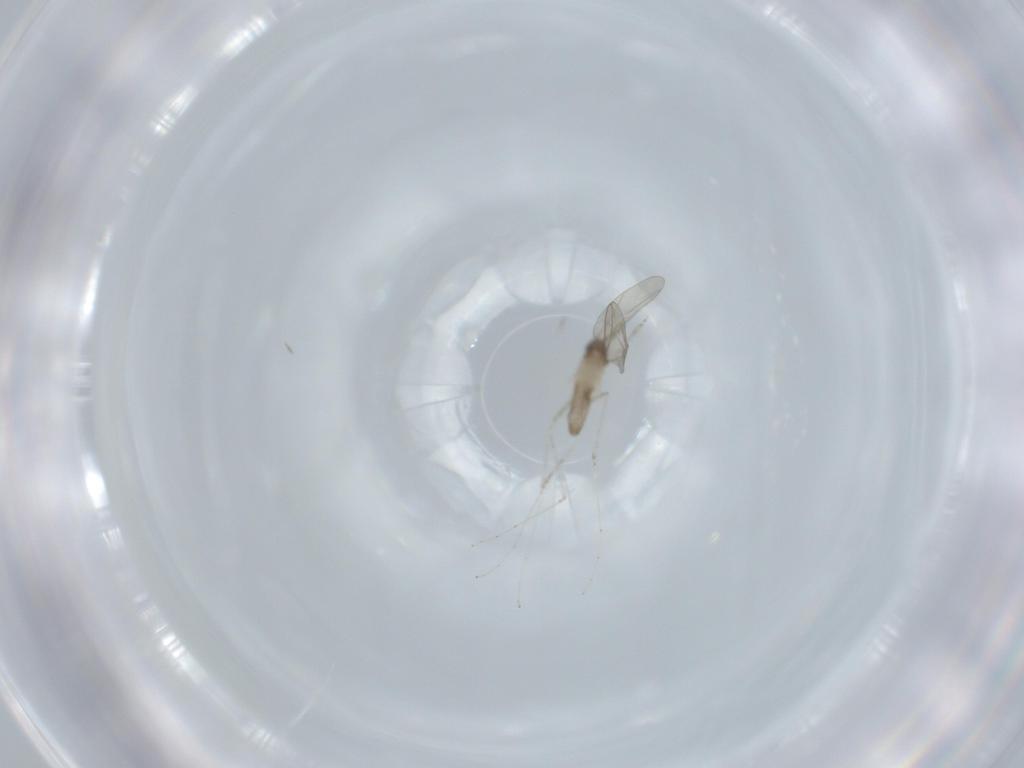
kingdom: Animalia
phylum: Arthropoda
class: Insecta
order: Diptera
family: Cecidomyiidae
